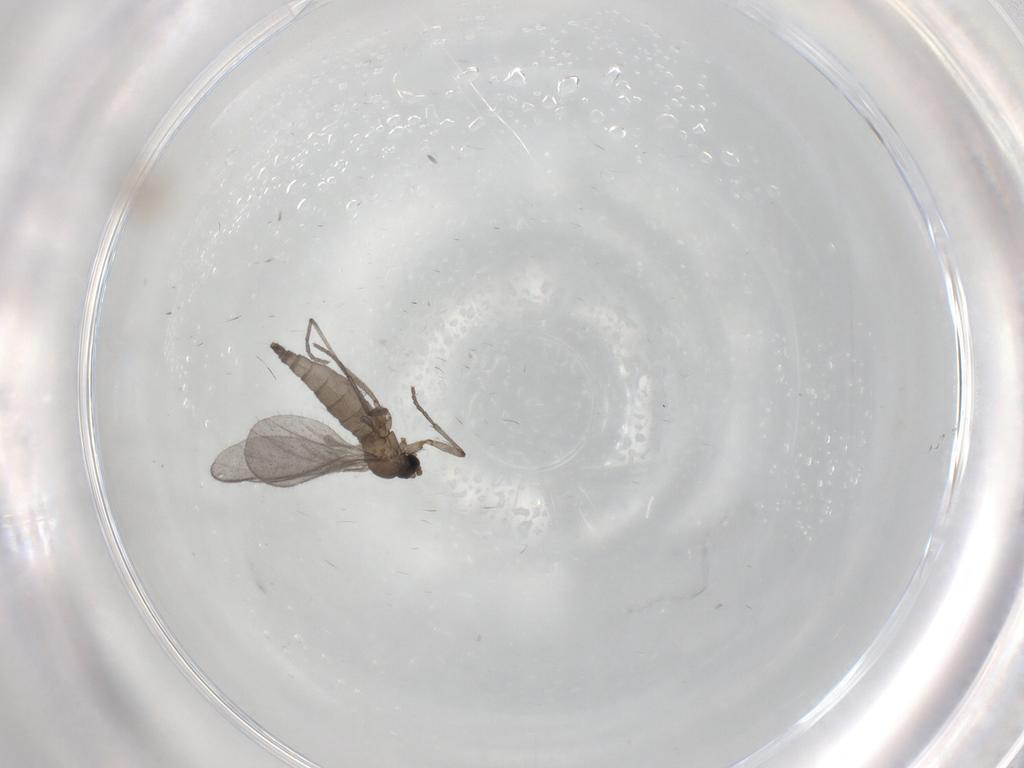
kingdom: Animalia
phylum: Arthropoda
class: Insecta
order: Diptera
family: Cecidomyiidae
